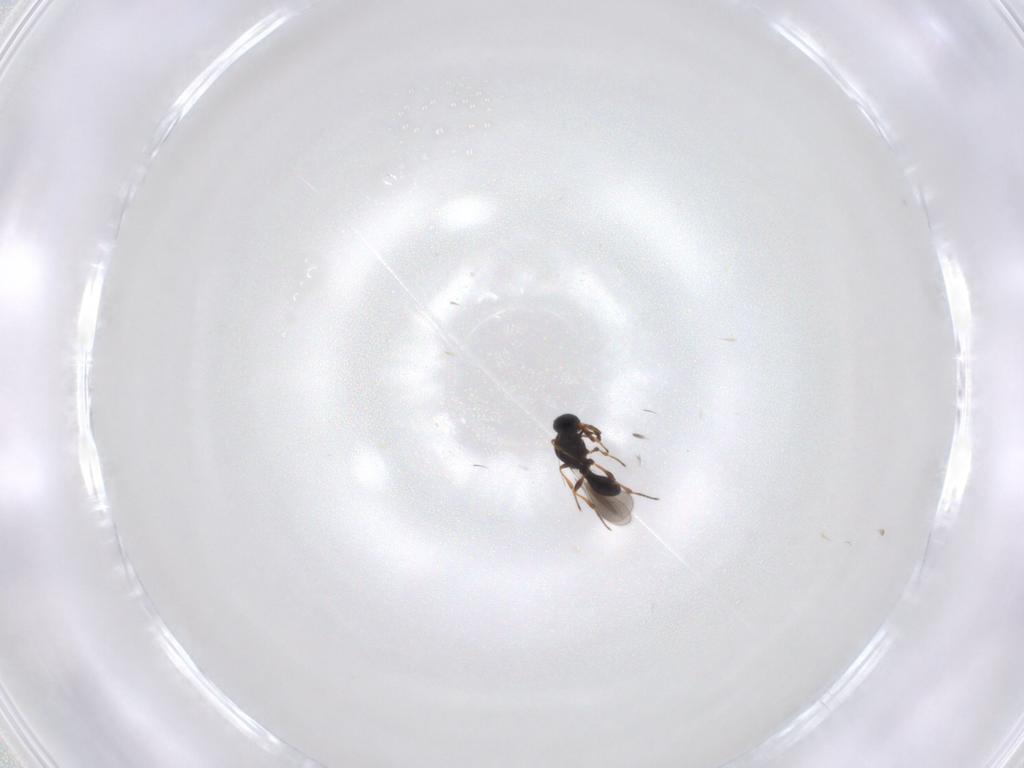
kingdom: Animalia
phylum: Arthropoda
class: Insecta
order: Hymenoptera
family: Platygastridae
